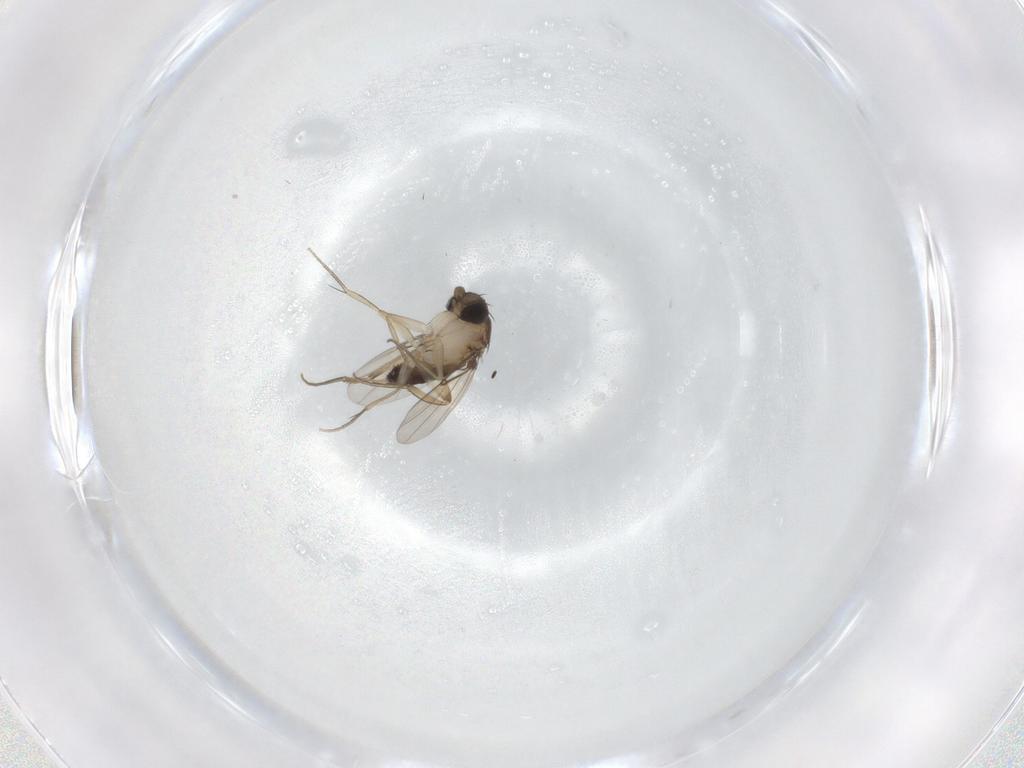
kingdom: Animalia
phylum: Arthropoda
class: Insecta
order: Diptera
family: Phoridae
